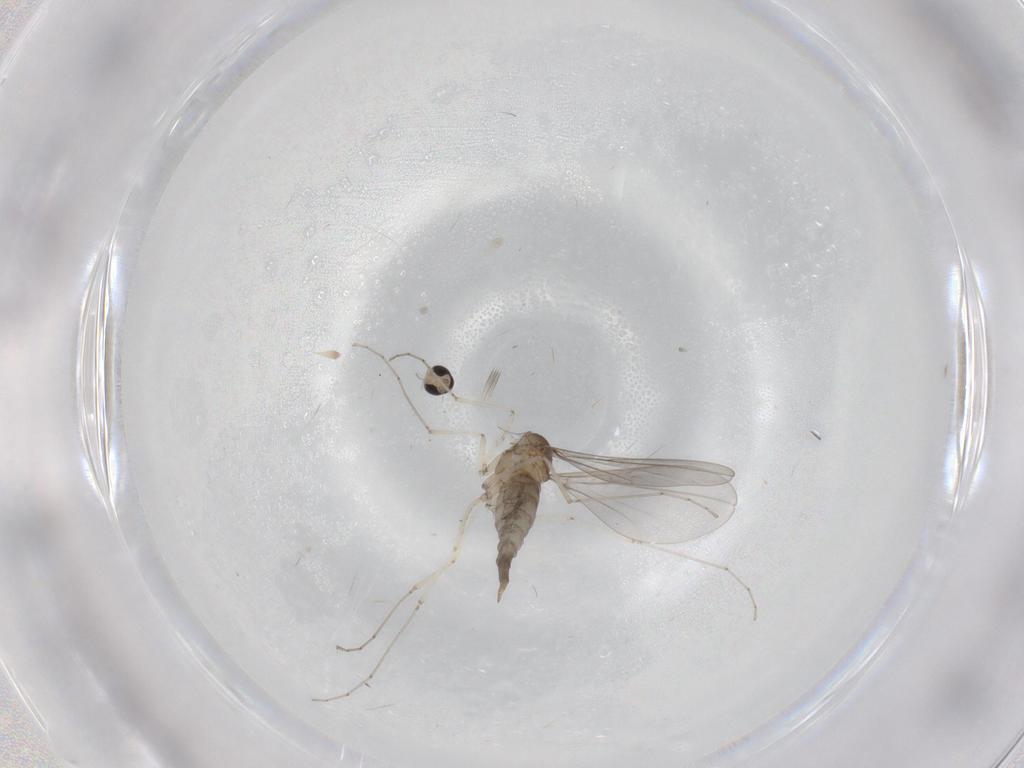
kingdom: Animalia
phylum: Arthropoda
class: Insecta
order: Diptera
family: Cecidomyiidae
